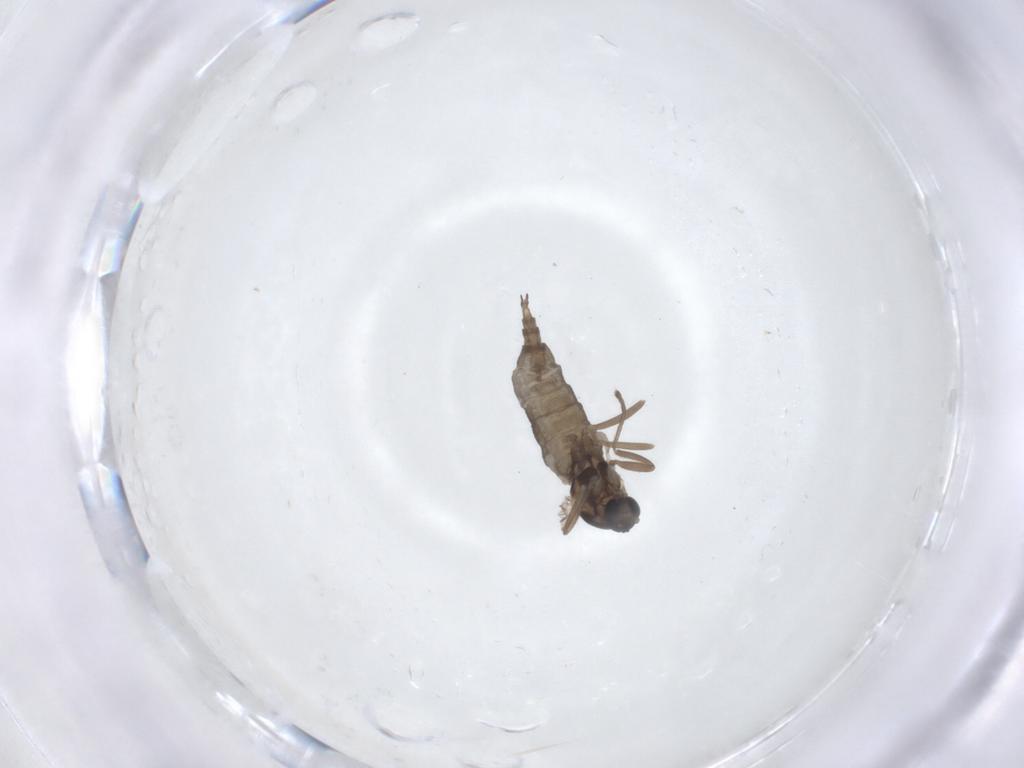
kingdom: Animalia
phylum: Arthropoda
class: Insecta
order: Diptera
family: Cecidomyiidae
